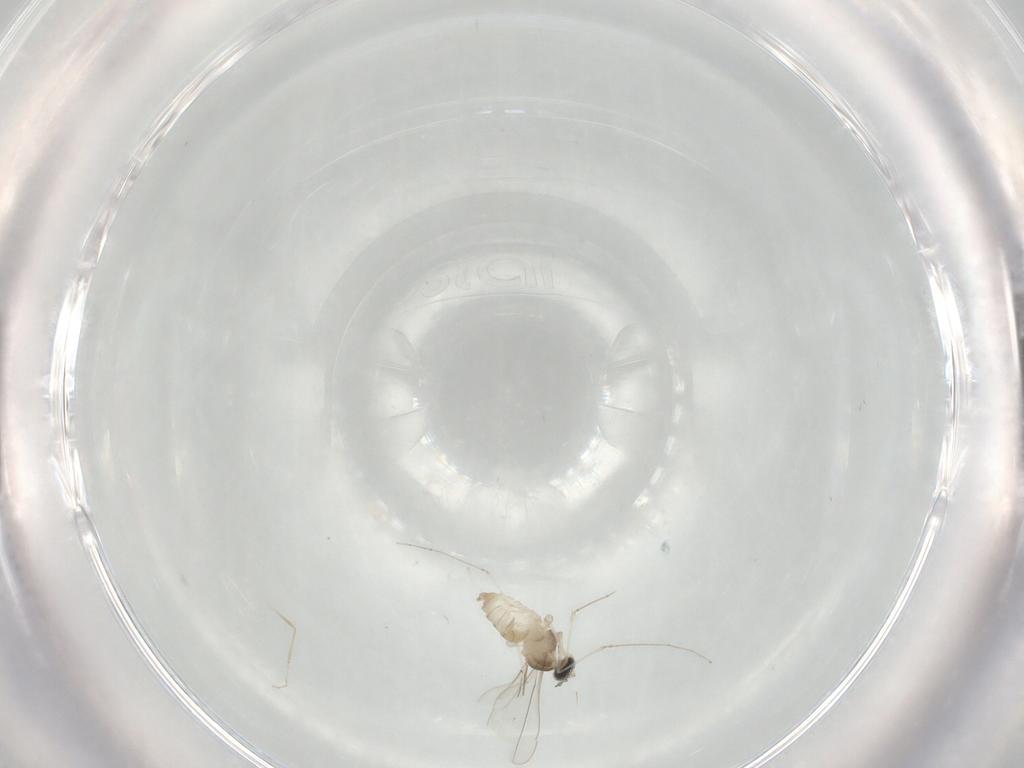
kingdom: Animalia
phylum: Arthropoda
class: Insecta
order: Diptera
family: Cecidomyiidae
